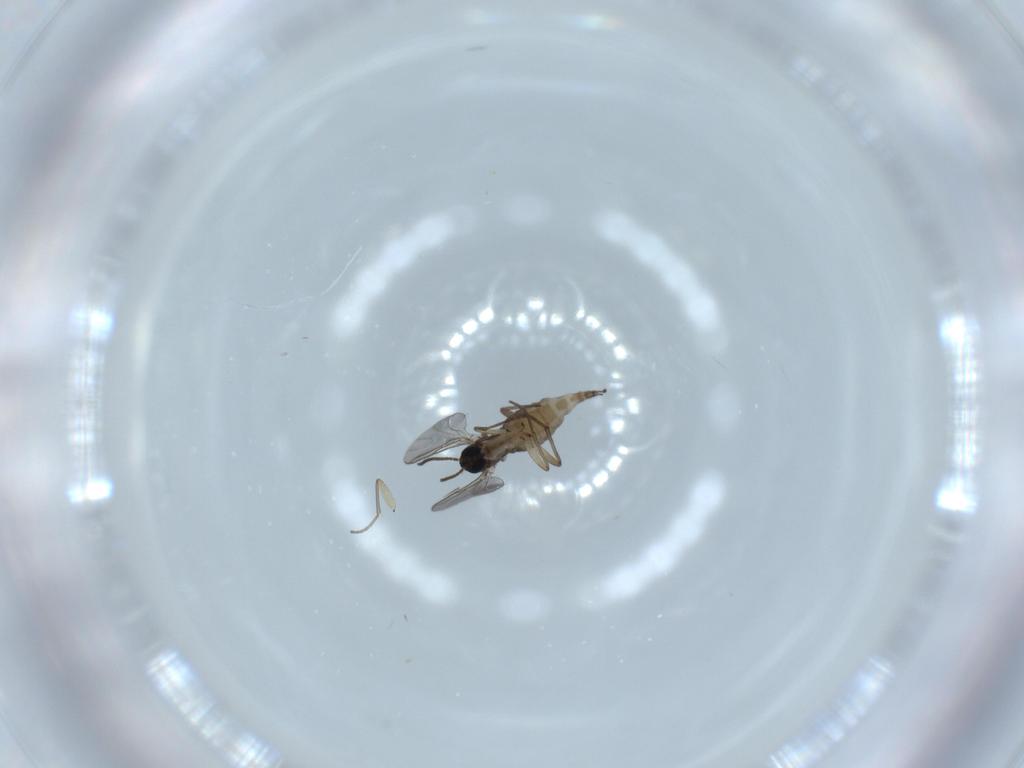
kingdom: Animalia
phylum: Arthropoda
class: Insecta
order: Diptera
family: Sciaridae
